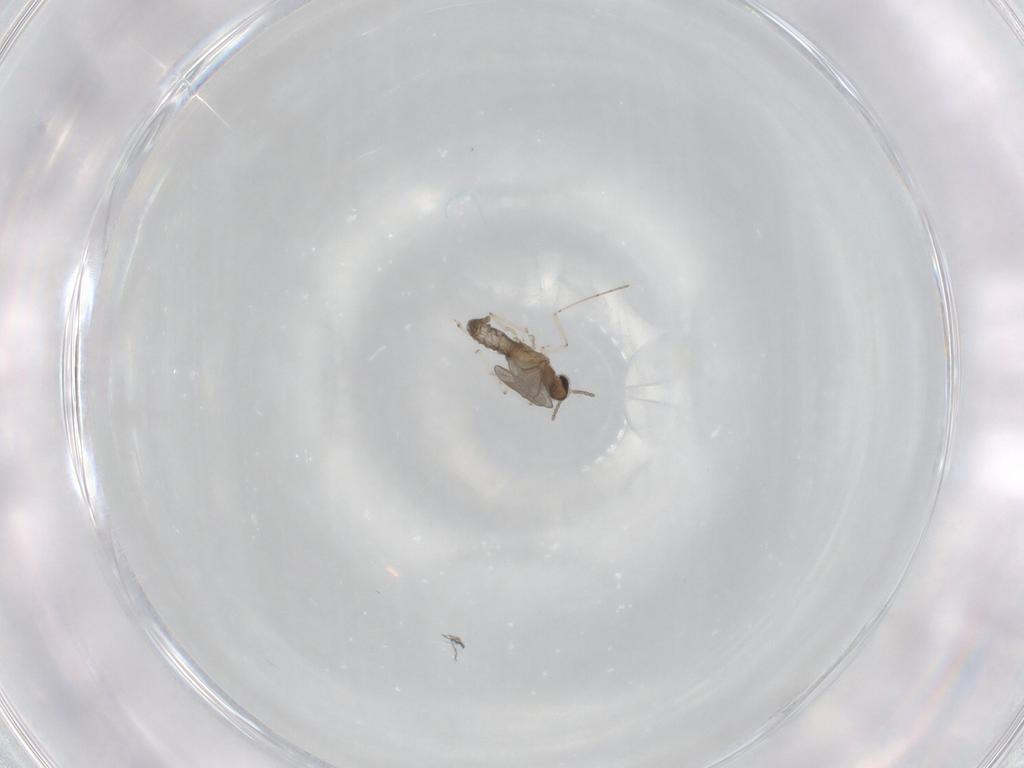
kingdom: Animalia
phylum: Arthropoda
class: Insecta
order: Diptera
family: Cecidomyiidae
